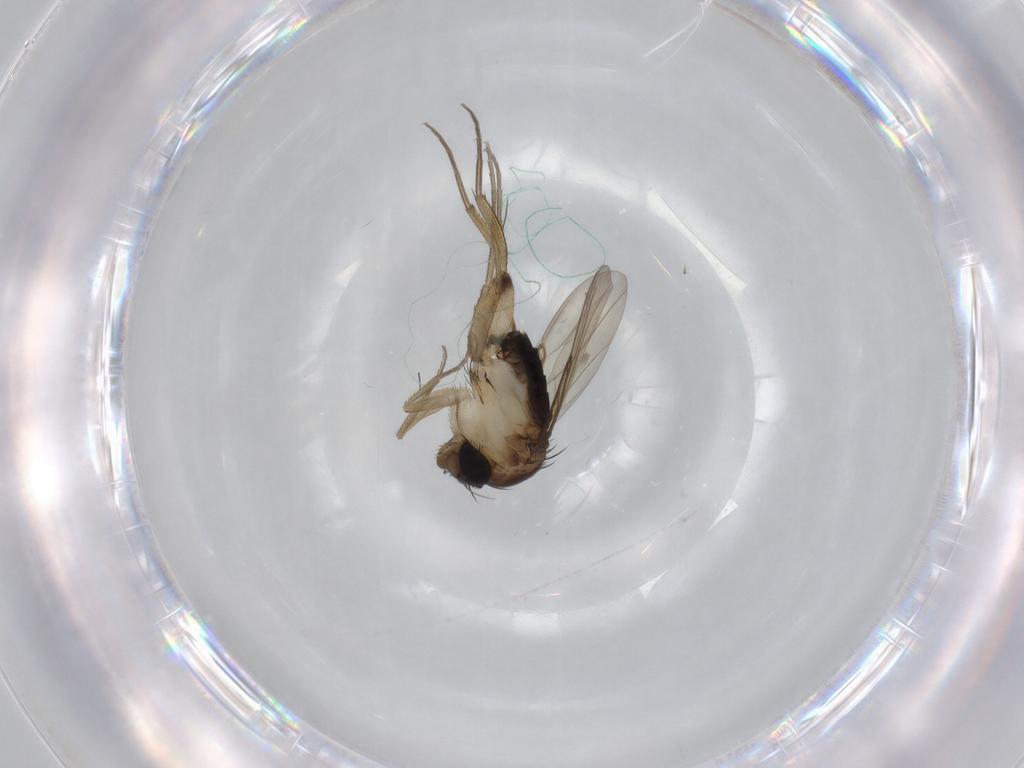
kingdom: Animalia
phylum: Arthropoda
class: Insecta
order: Diptera
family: Phoridae
